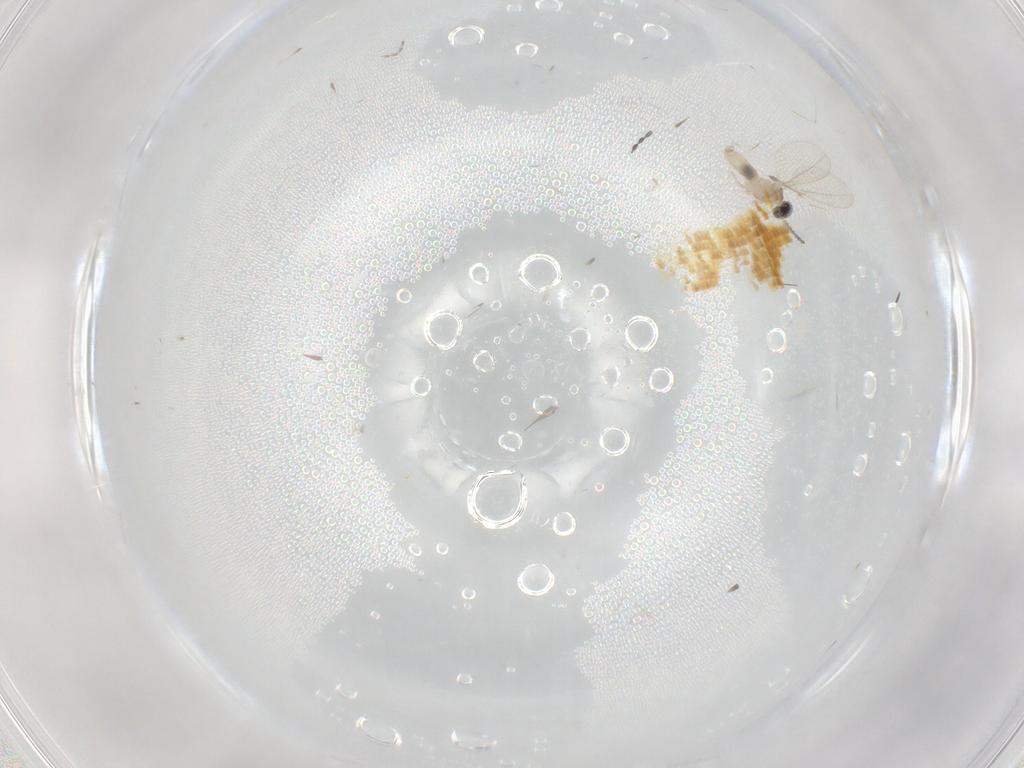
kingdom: Animalia
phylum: Arthropoda
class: Insecta
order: Diptera
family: Cecidomyiidae
